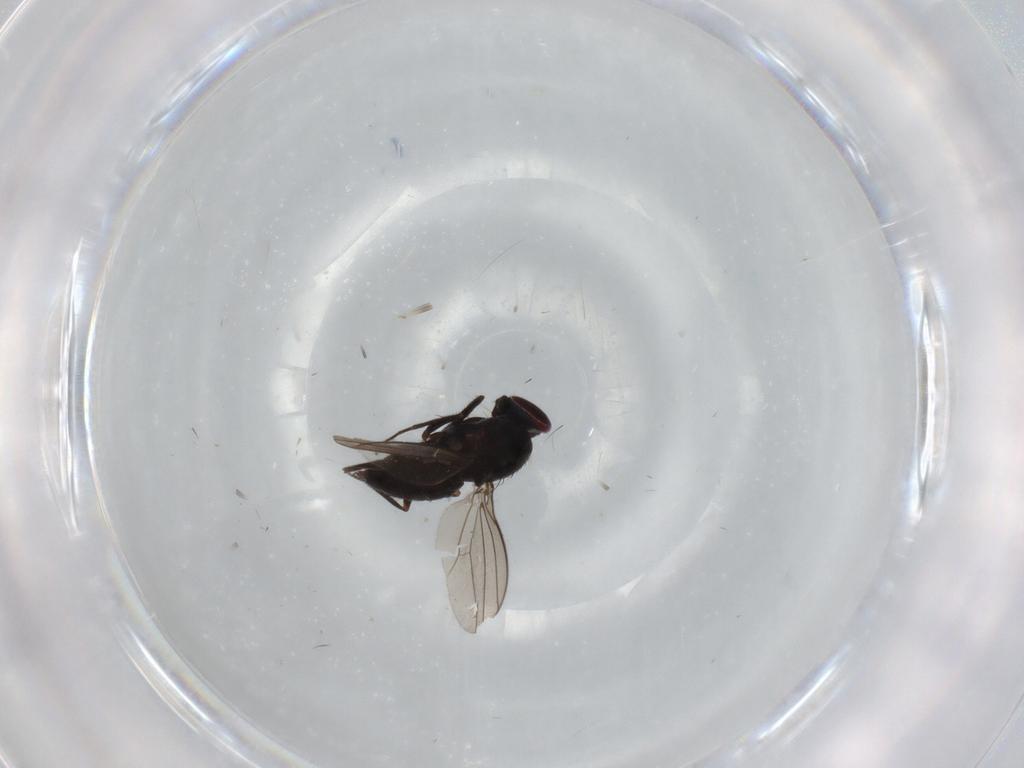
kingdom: Animalia
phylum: Arthropoda
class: Insecta
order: Diptera
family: Dolichopodidae
